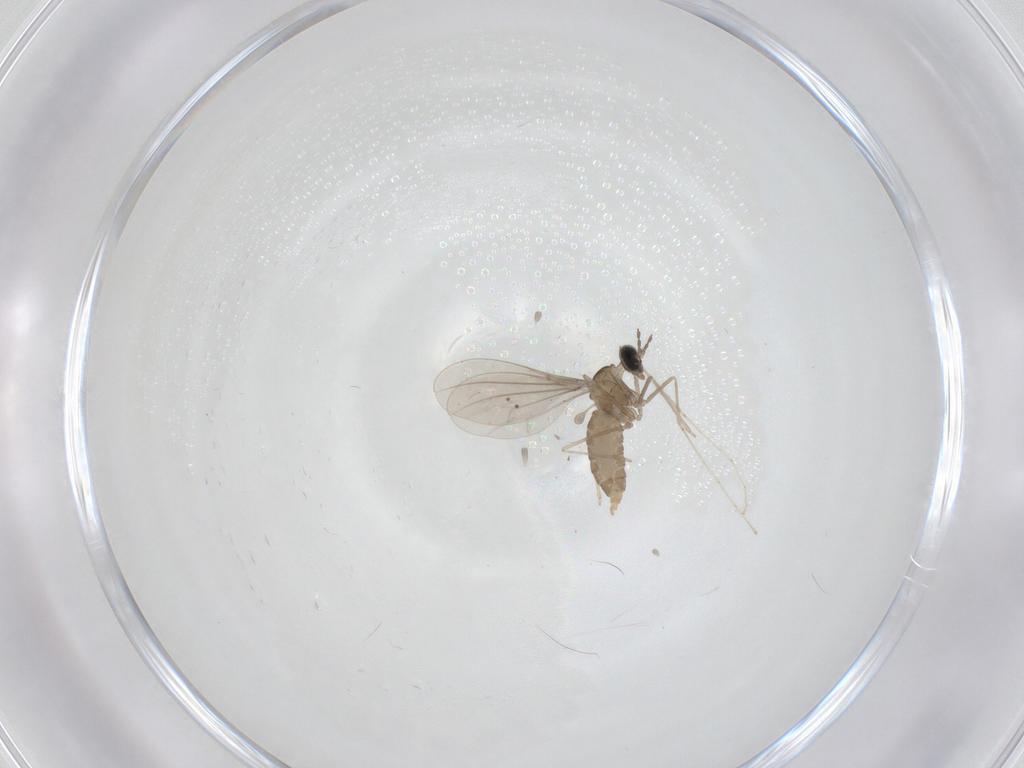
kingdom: Animalia
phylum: Arthropoda
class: Insecta
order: Diptera
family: Cecidomyiidae
